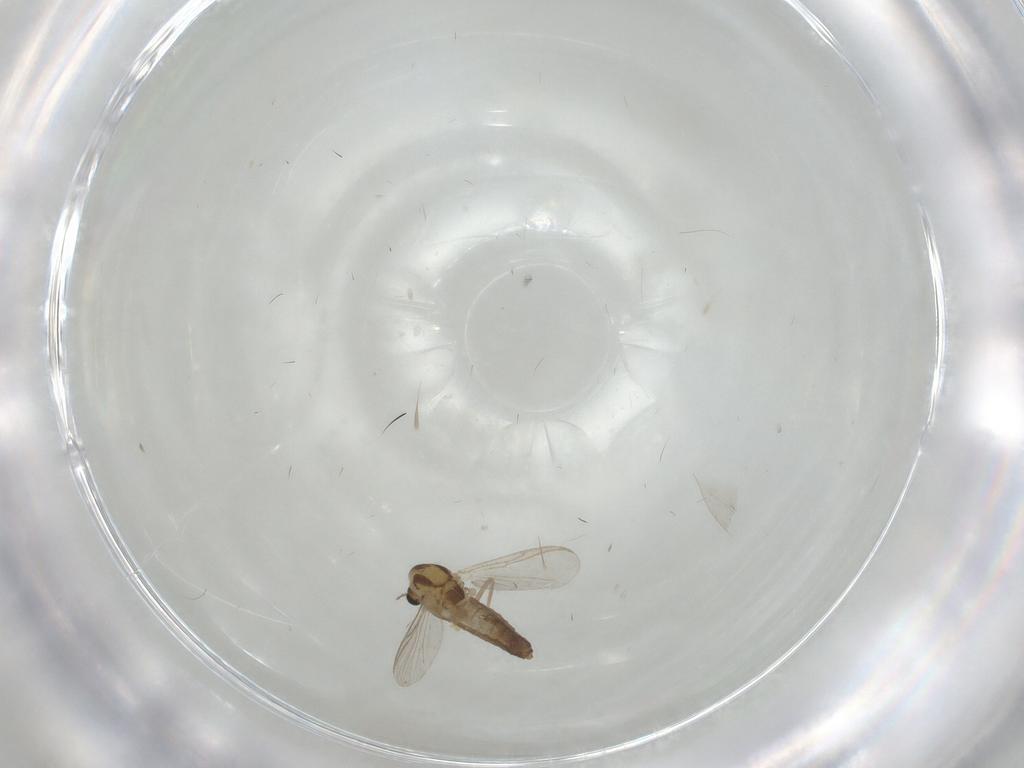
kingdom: Animalia
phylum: Arthropoda
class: Insecta
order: Diptera
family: Chironomidae
